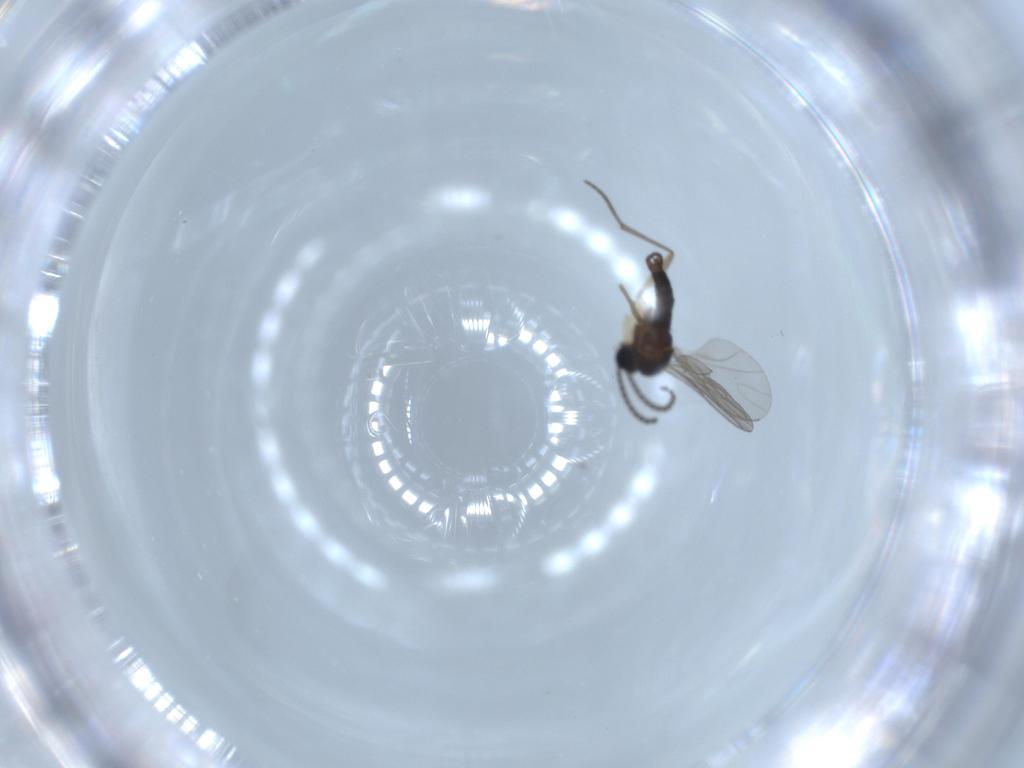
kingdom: Animalia
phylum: Arthropoda
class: Insecta
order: Diptera
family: Sciaridae
